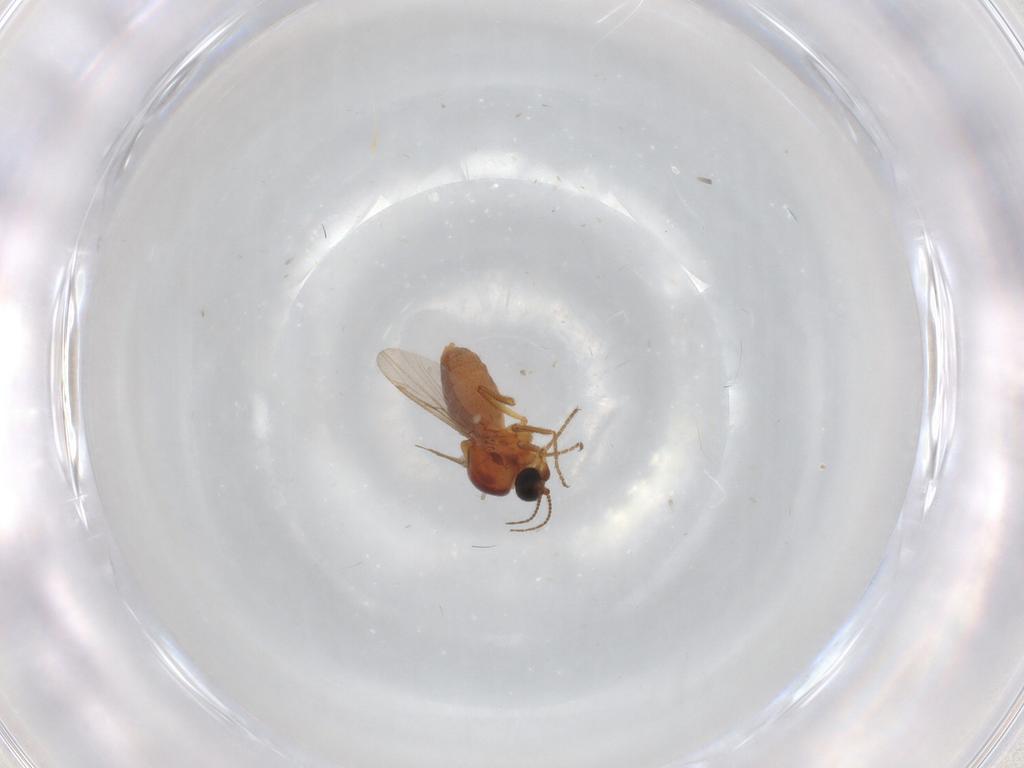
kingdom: Animalia
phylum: Arthropoda
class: Insecta
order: Diptera
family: Ceratopogonidae
